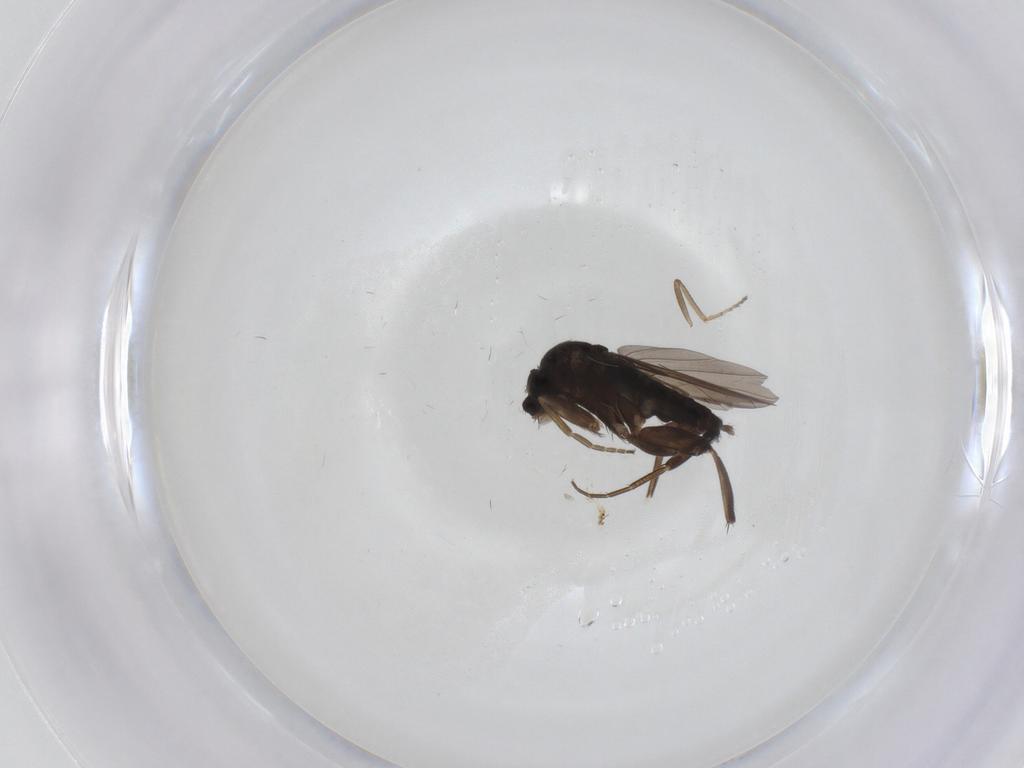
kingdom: Animalia
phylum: Arthropoda
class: Insecta
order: Diptera
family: Phoridae
